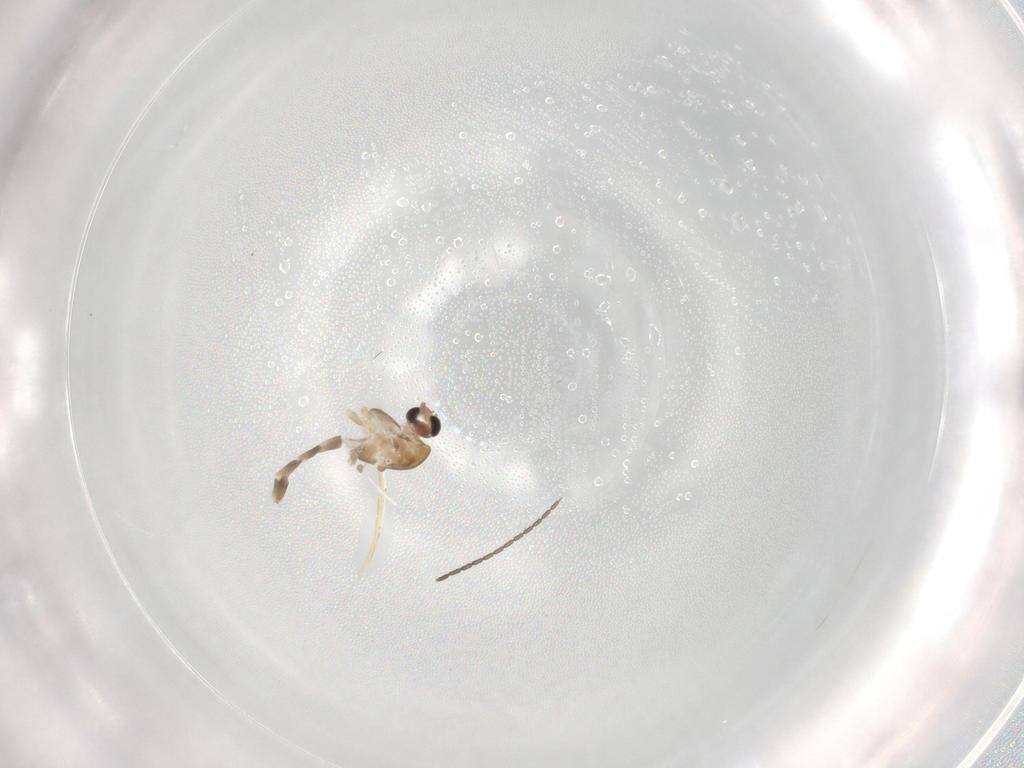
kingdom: Animalia
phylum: Arthropoda
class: Insecta
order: Diptera
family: Cecidomyiidae
